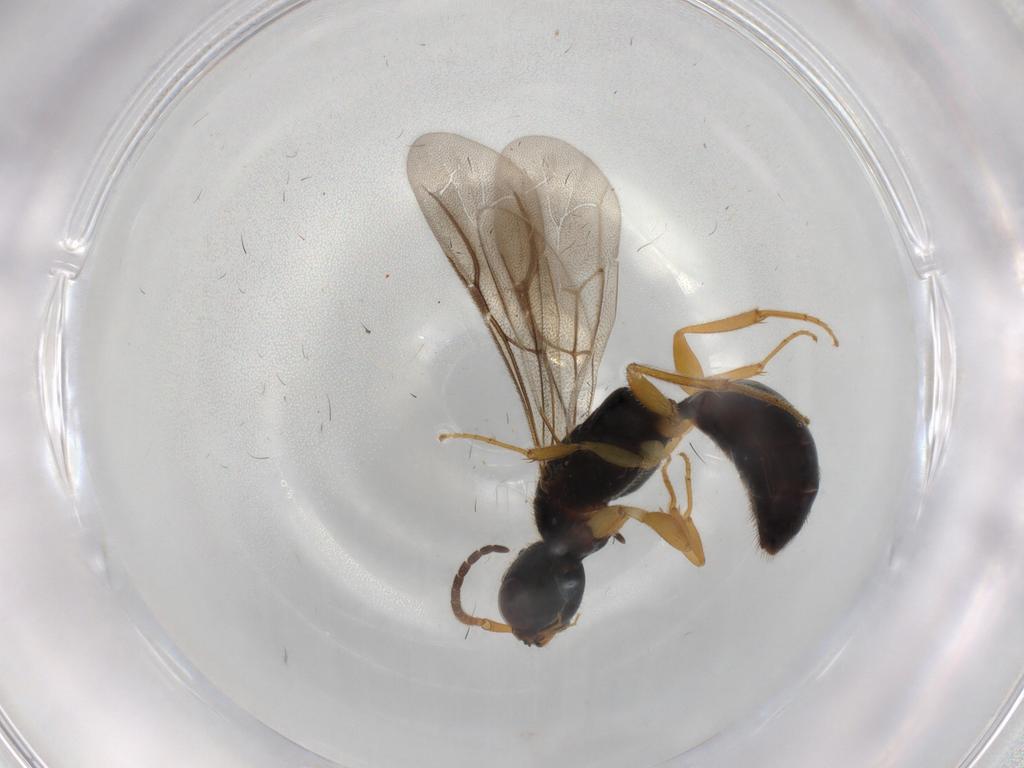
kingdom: Animalia
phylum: Arthropoda
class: Insecta
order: Hymenoptera
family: Bethylidae
